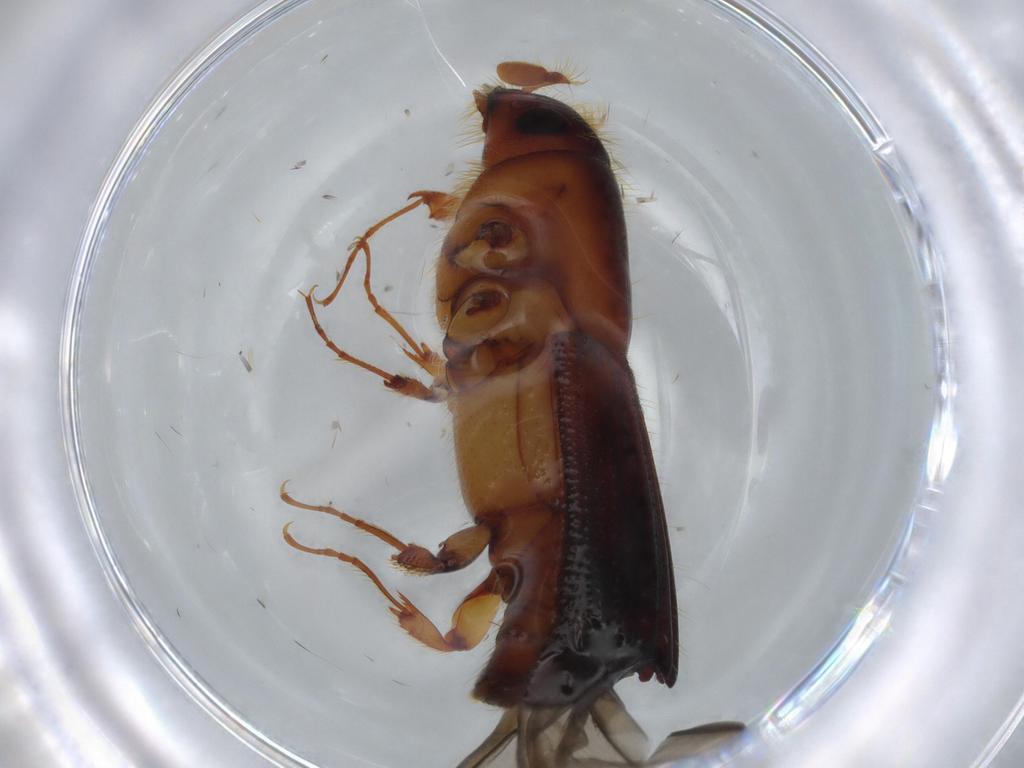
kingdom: Animalia
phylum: Arthropoda
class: Insecta
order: Coleoptera
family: Curculionidae
